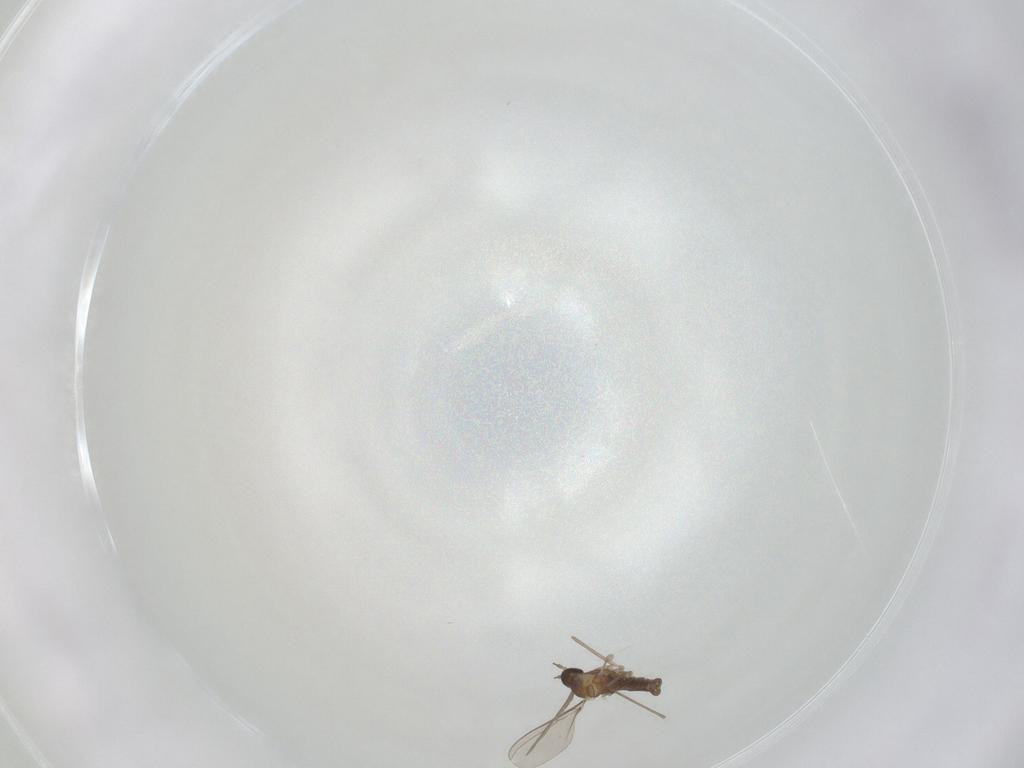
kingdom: Animalia
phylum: Arthropoda
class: Insecta
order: Diptera
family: Cecidomyiidae
